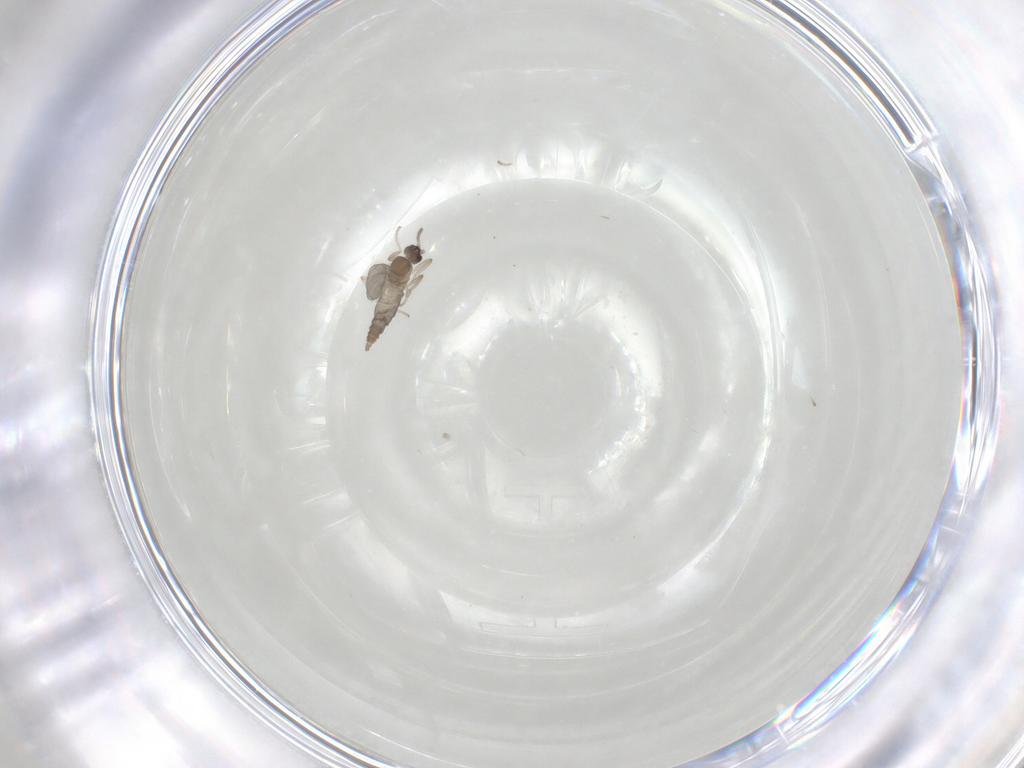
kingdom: Animalia
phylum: Arthropoda
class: Insecta
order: Diptera
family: Cecidomyiidae
